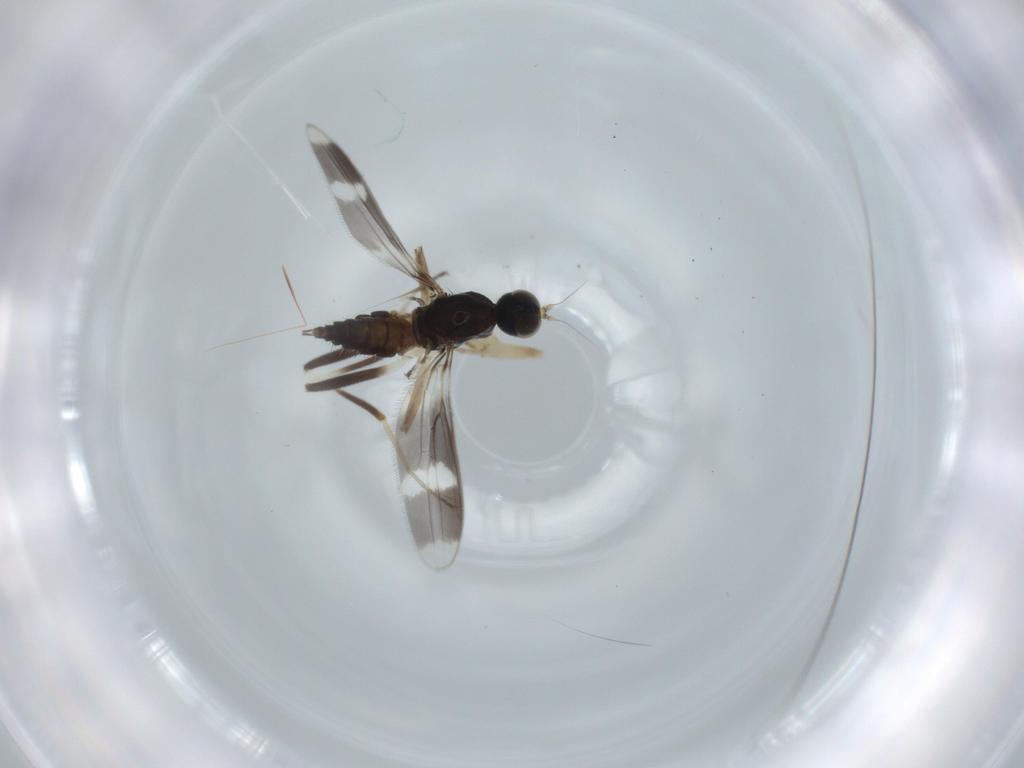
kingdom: Animalia
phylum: Arthropoda
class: Insecta
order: Diptera
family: Hybotidae
